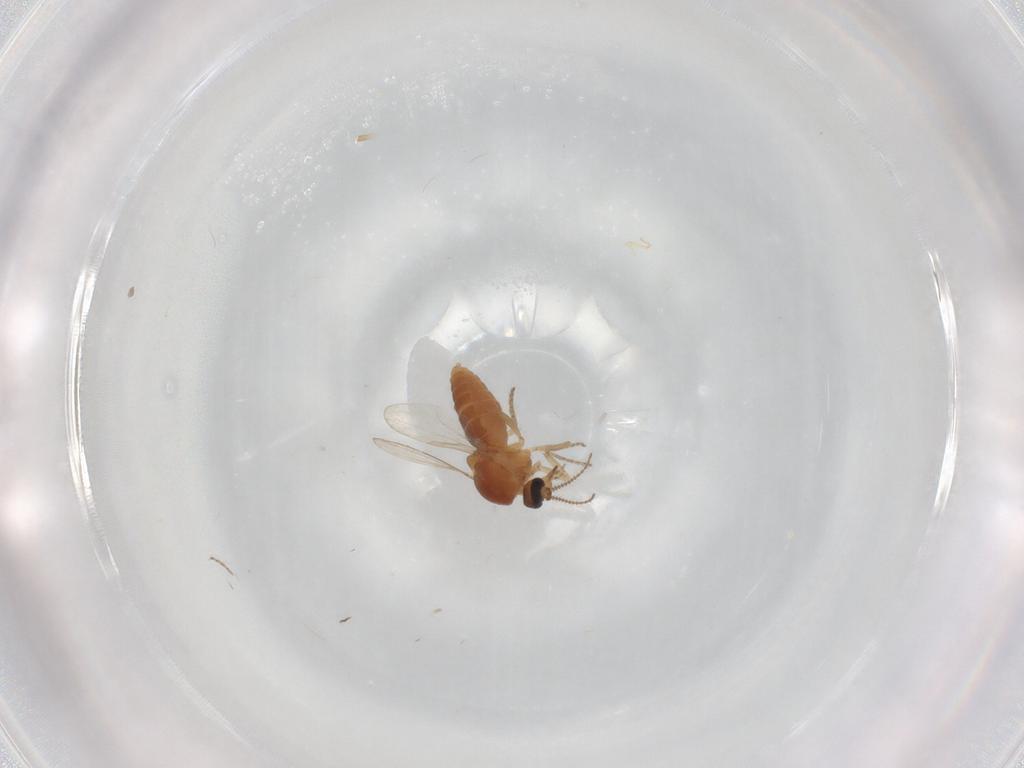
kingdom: Animalia
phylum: Arthropoda
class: Insecta
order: Diptera
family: Ceratopogonidae
